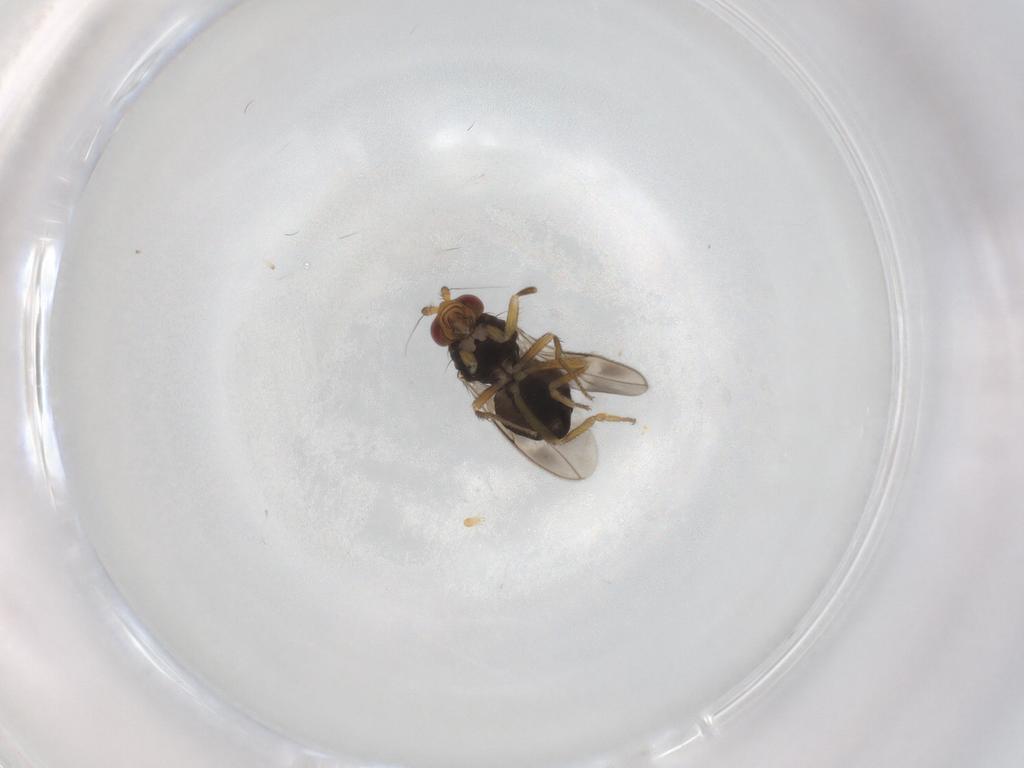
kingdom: Animalia
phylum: Arthropoda
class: Insecta
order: Diptera
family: Sphaeroceridae
